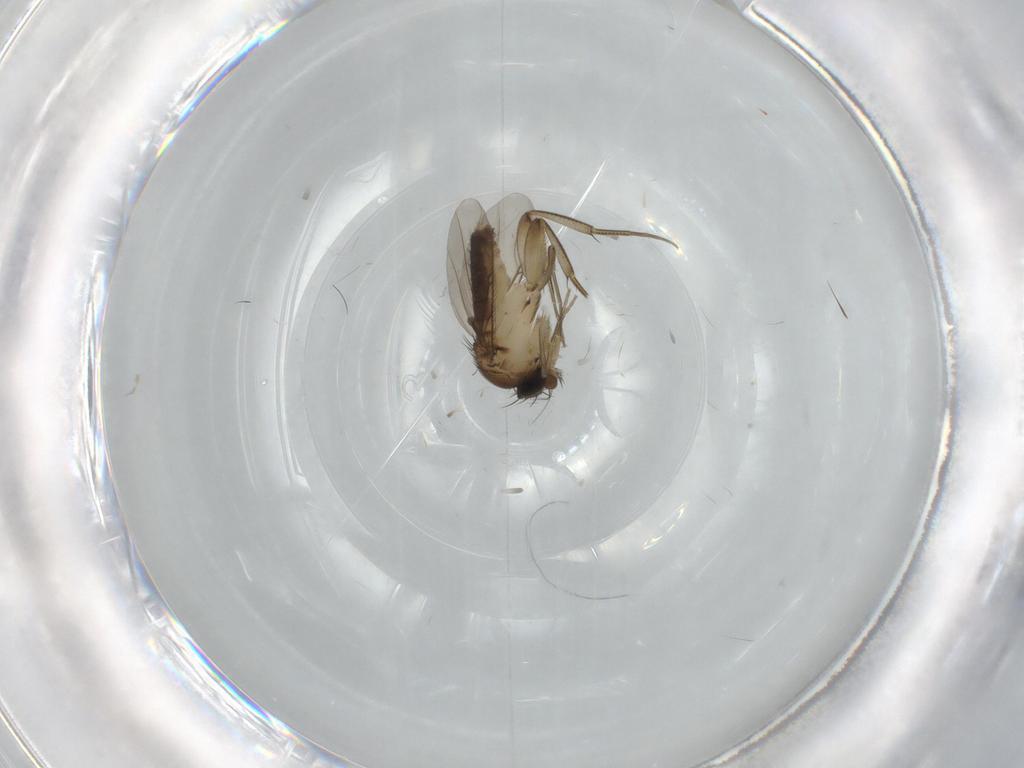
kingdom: Animalia
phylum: Arthropoda
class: Insecta
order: Diptera
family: Phoridae
